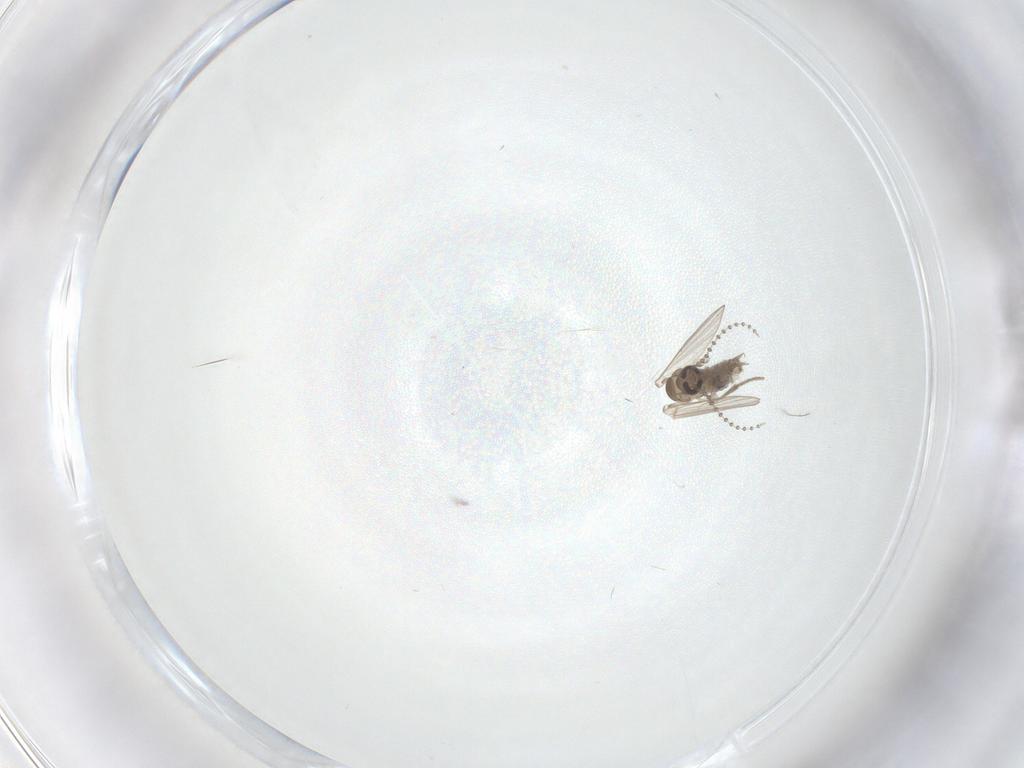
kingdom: Animalia
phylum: Arthropoda
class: Insecta
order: Diptera
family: Psychodidae
